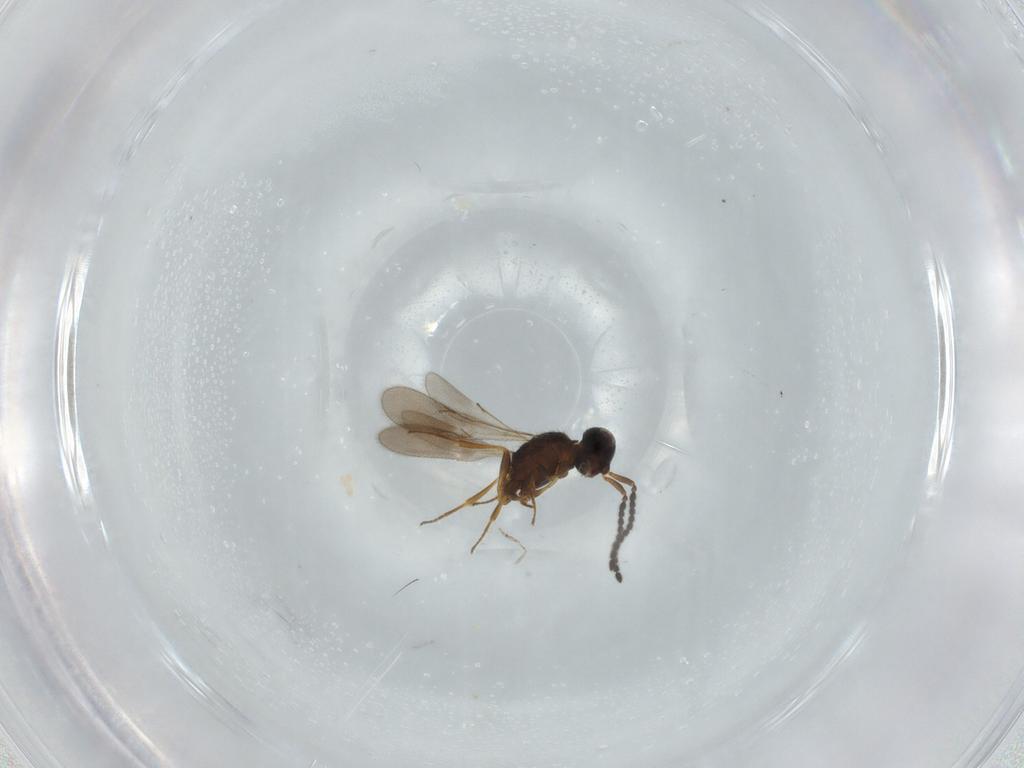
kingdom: Animalia
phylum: Arthropoda
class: Insecta
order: Hymenoptera
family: Scelionidae
